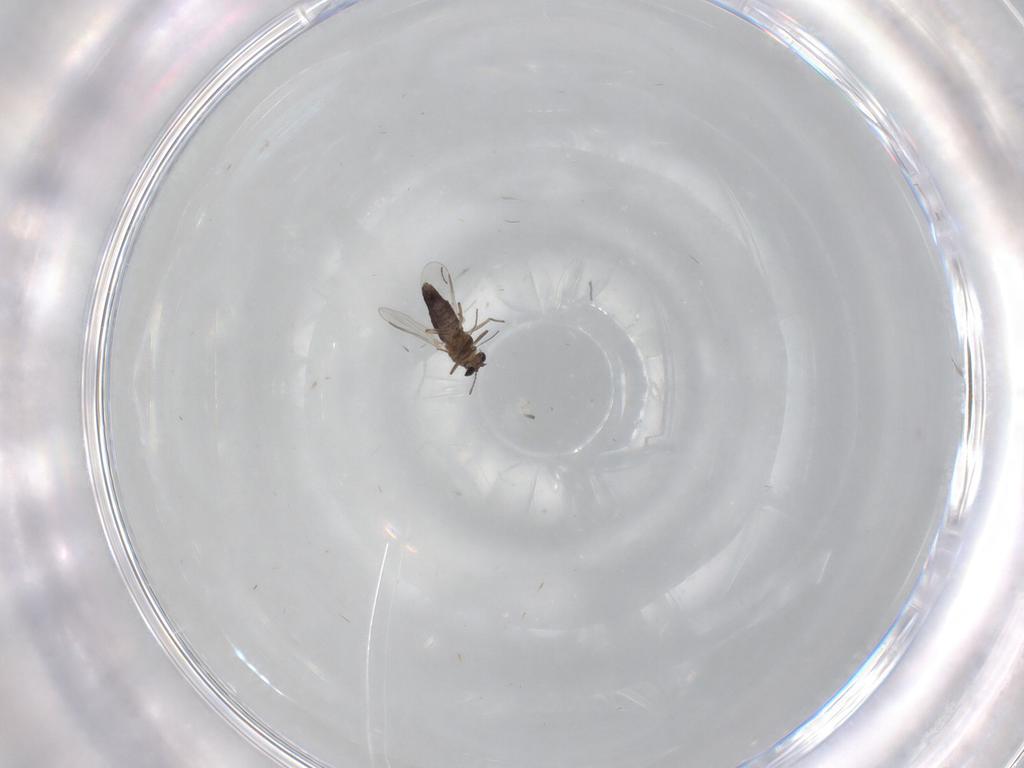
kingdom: Animalia
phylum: Arthropoda
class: Insecta
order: Diptera
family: Chironomidae
